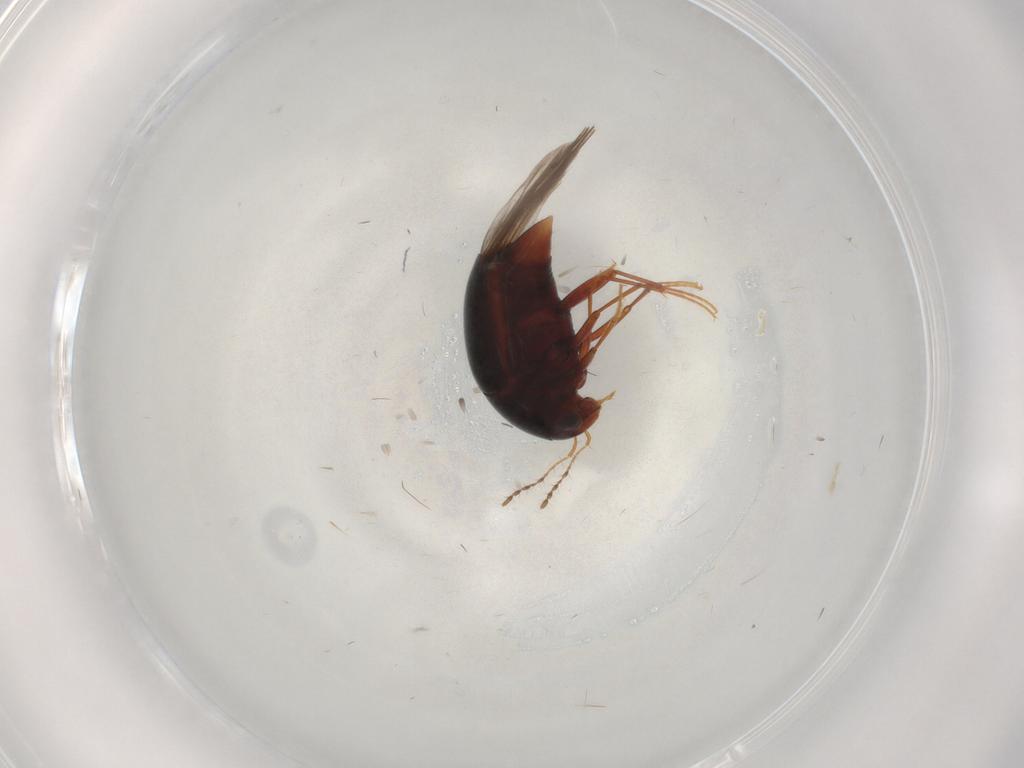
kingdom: Animalia
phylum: Arthropoda
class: Insecta
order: Coleoptera
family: Staphylinidae
